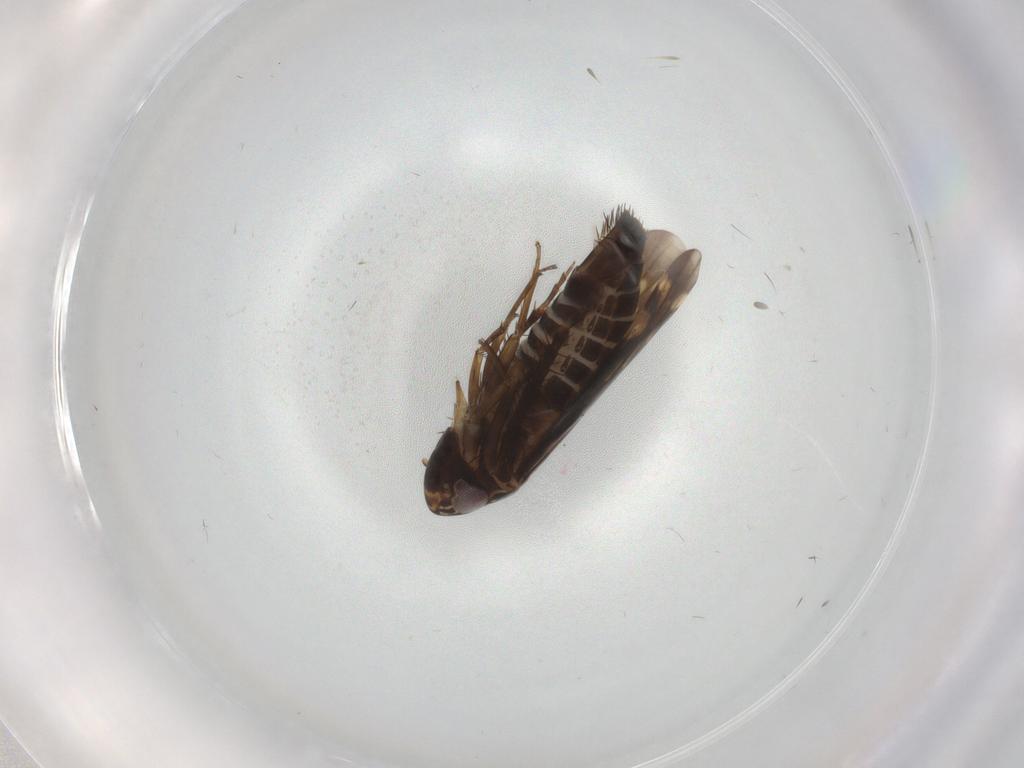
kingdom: Animalia
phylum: Arthropoda
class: Insecta
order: Hemiptera
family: Cicadellidae
